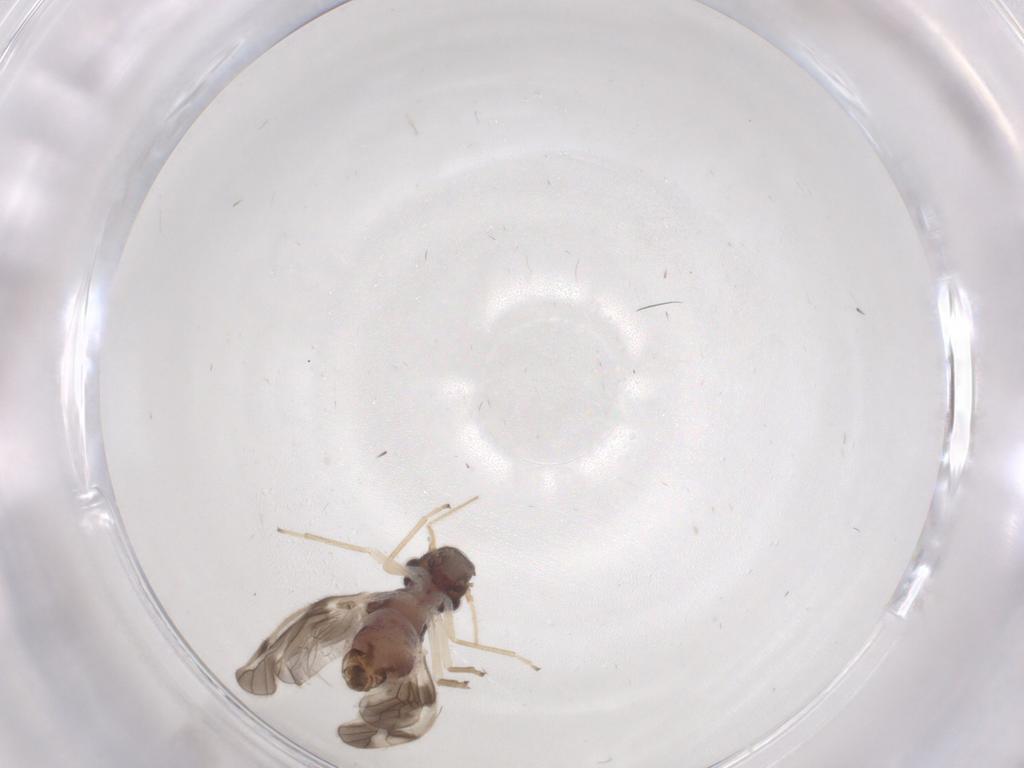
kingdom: Animalia
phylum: Arthropoda
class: Insecta
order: Psocodea
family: Caeciliusidae
